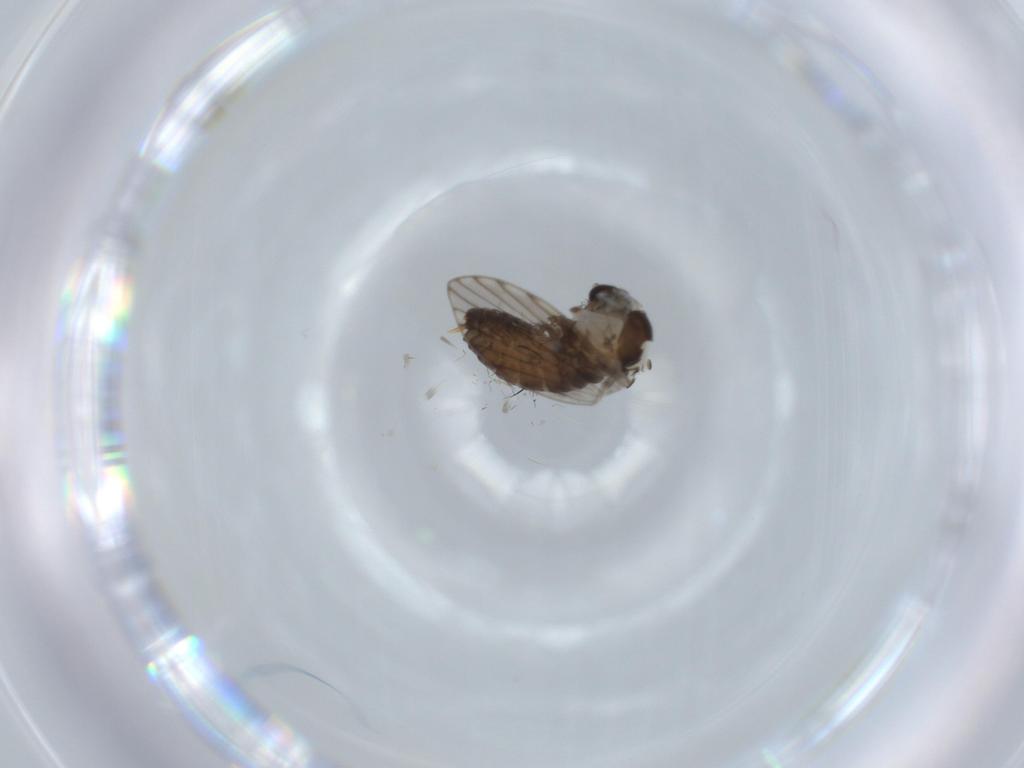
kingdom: Animalia
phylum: Arthropoda
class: Insecta
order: Diptera
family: Psychodidae
